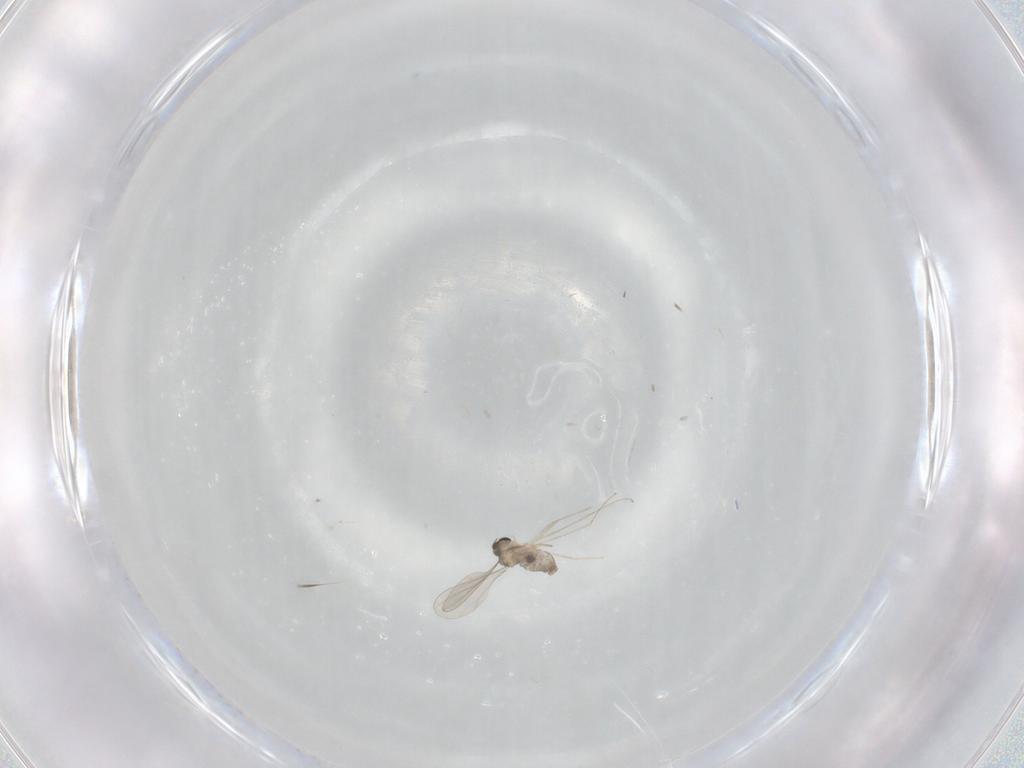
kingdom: Animalia
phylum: Arthropoda
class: Insecta
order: Diptera
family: Cecidomyiidae
